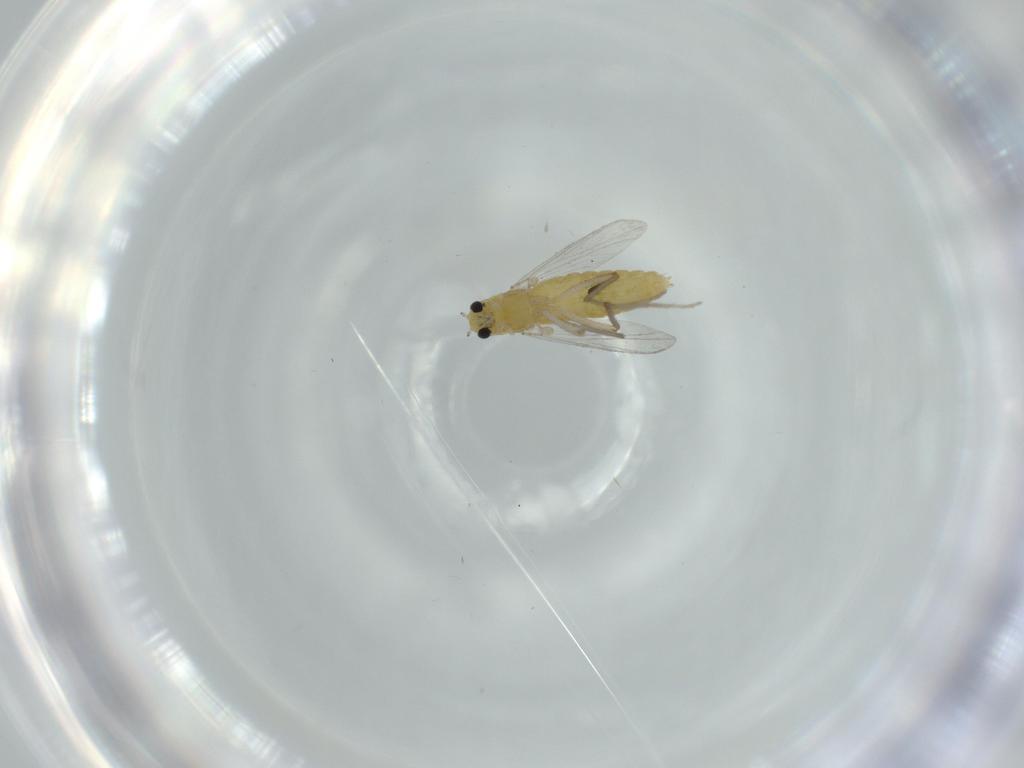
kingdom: Animalia
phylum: Arthropoda
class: Insecta
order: Diptera
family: Chironomidae
